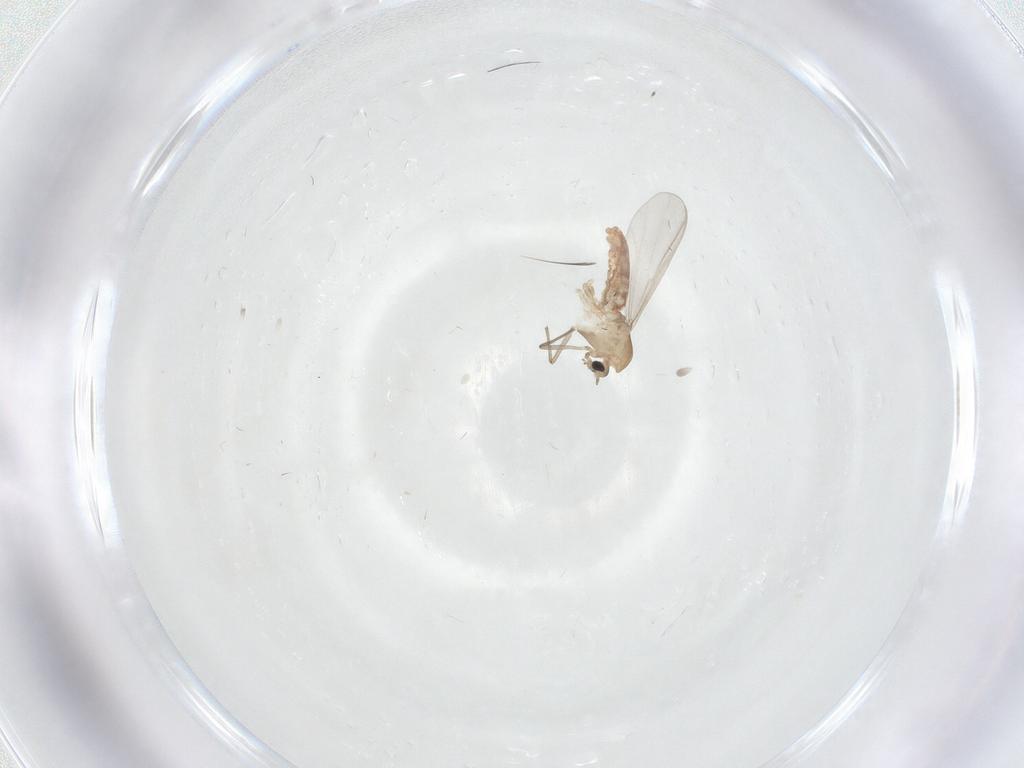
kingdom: Animalia
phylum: Arthropoda
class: Insecta
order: Diptera
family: Chironomidae
